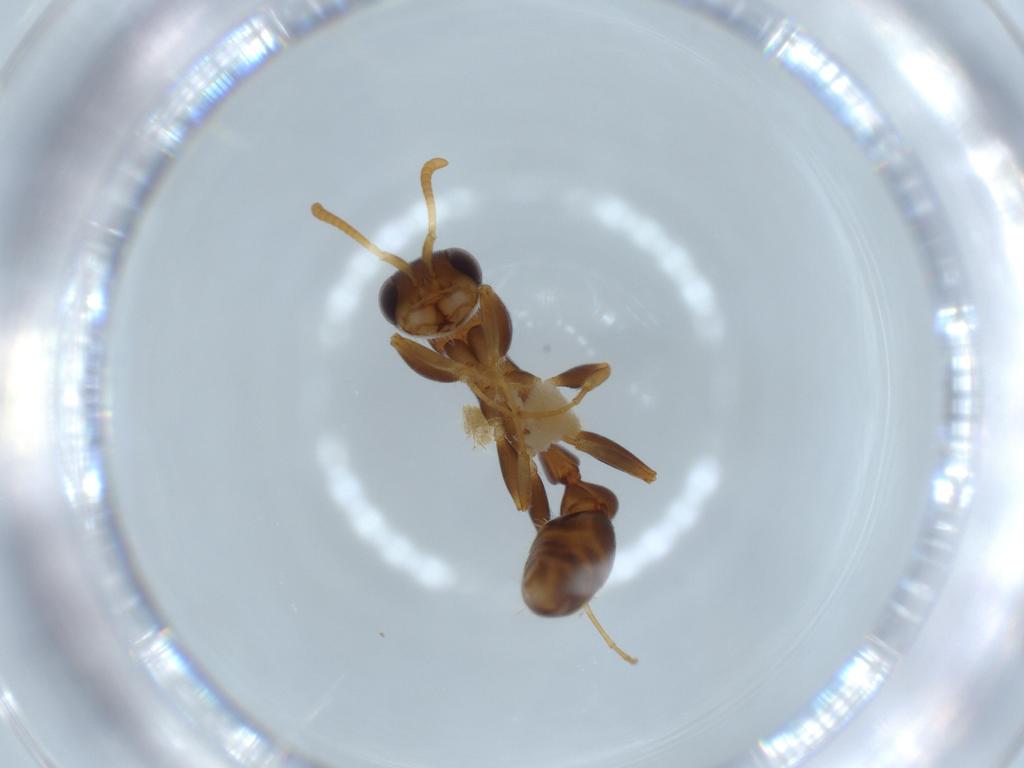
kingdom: Animalia
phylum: Arthropoda
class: Insecta
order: Hymenoptera
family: Formicidae
